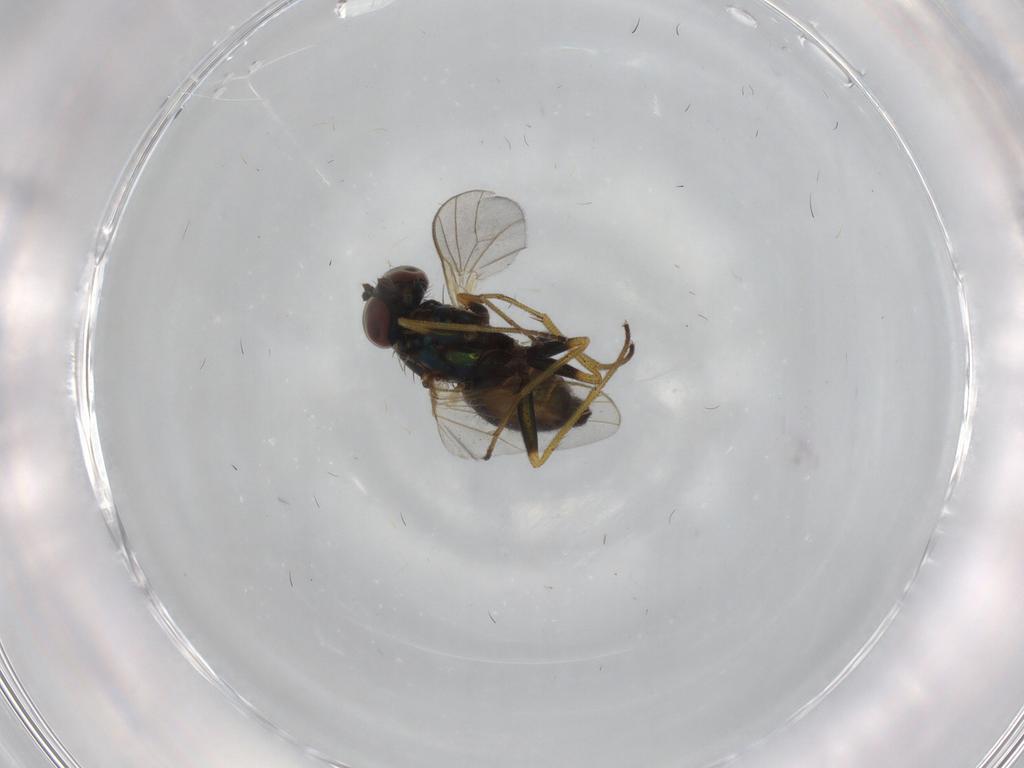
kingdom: Animalia
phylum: Arthropoda
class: Insecta
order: Diptera
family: Dolichopodidae
